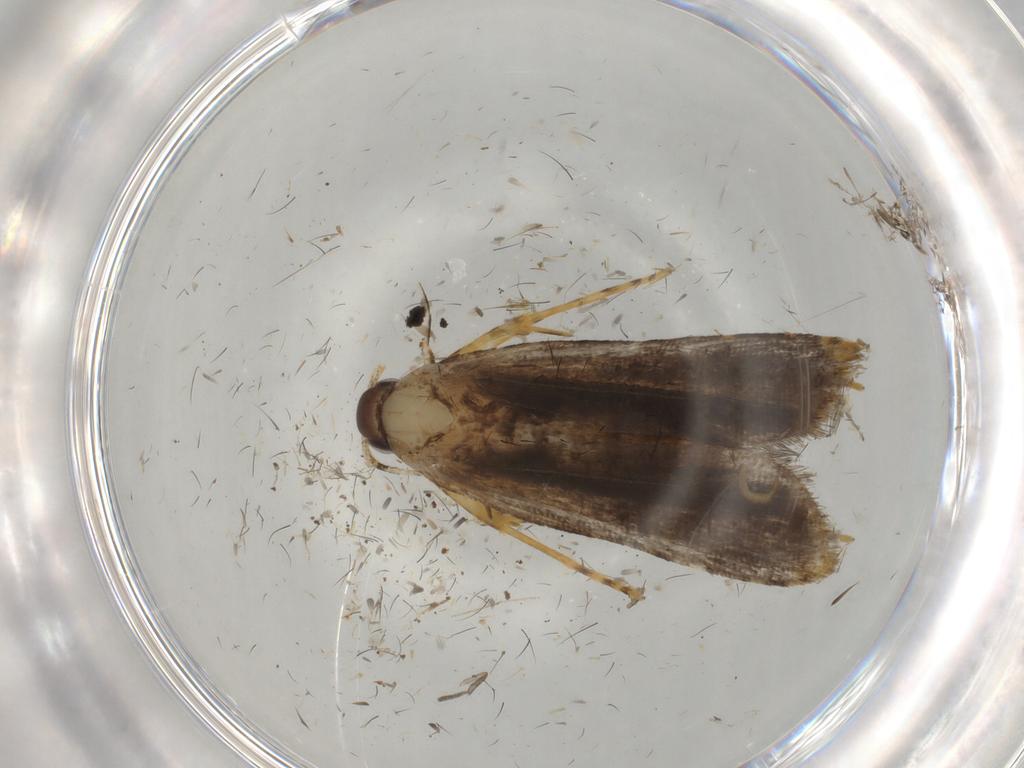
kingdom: Animalia
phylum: Arthropoda
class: Insecta
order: Lepidoptera
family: Cosmopterigidae
